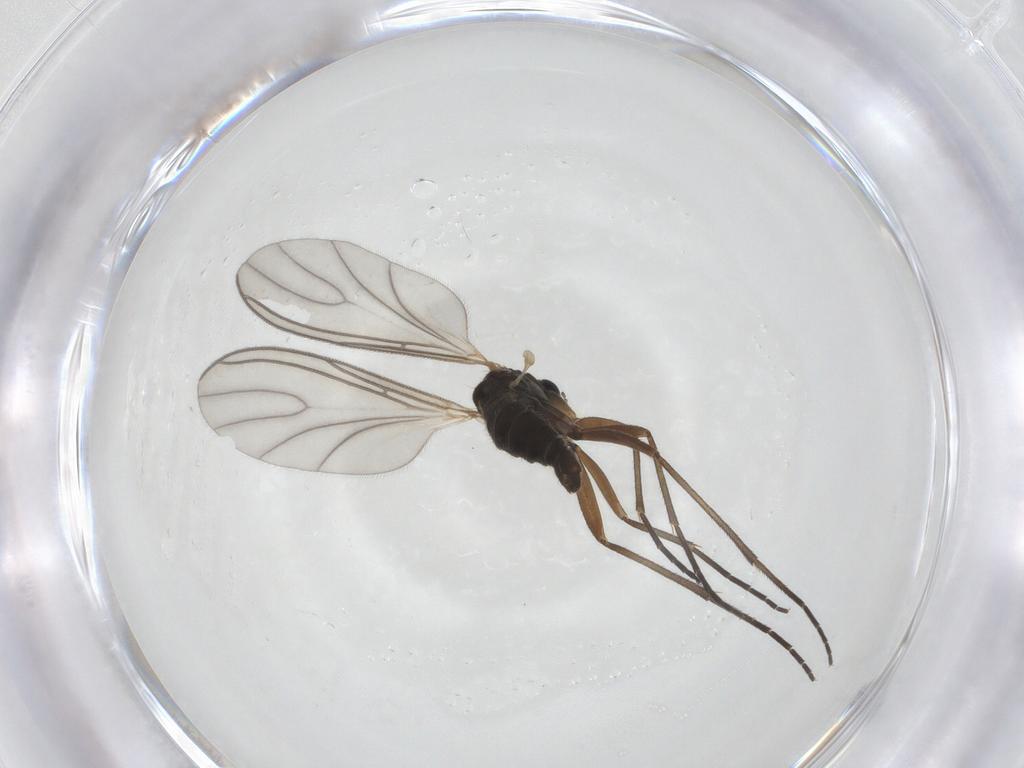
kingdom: Animalia
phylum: Arthropoda
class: Insecta
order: Diptera
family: Sciaridae
